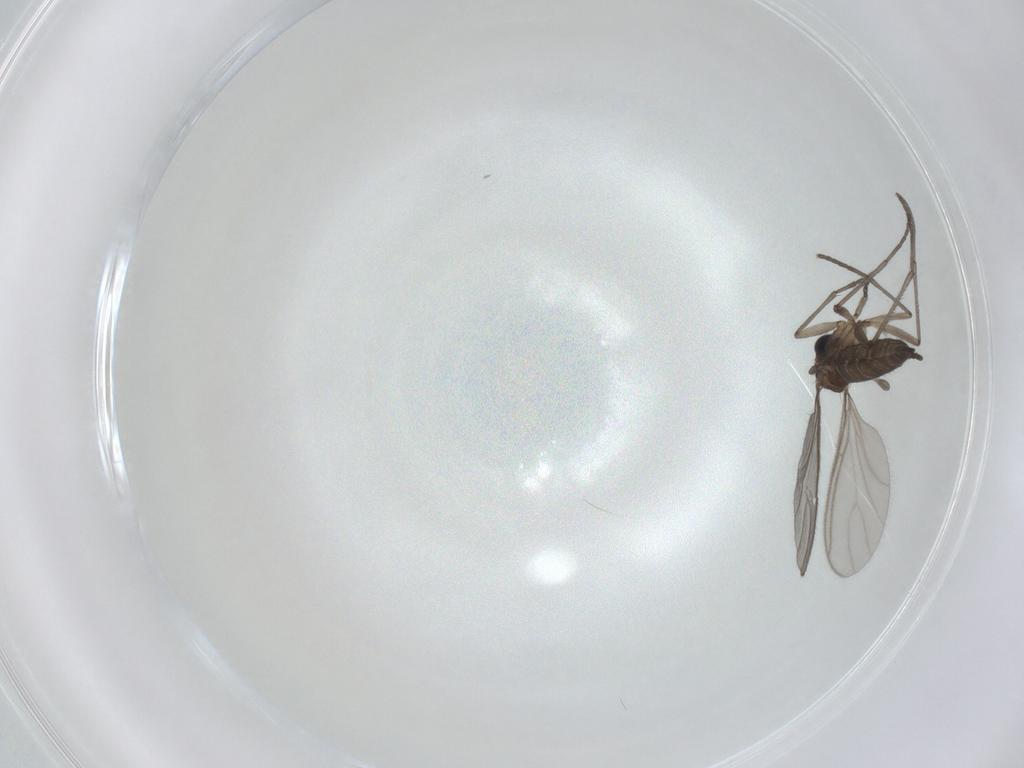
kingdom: Animalia
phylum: Arthropoda
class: Insecta
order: Diptera
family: Sciaridae
